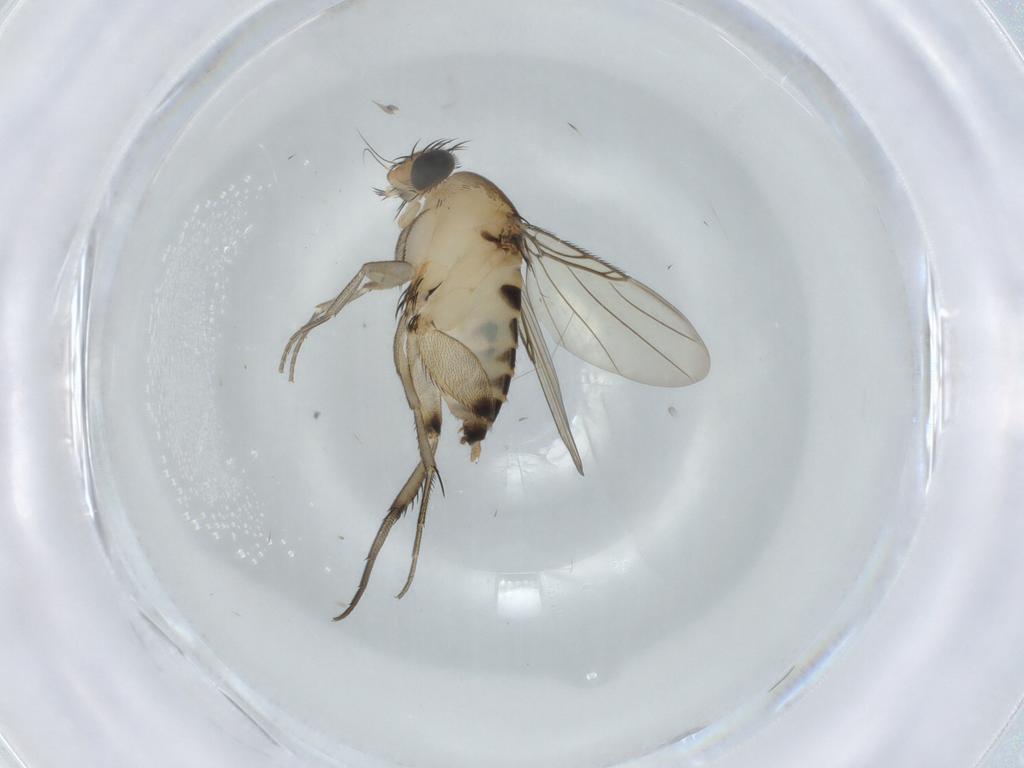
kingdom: Animalia
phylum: Arthropoda
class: Insecta
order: Diptera
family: Phoridae
